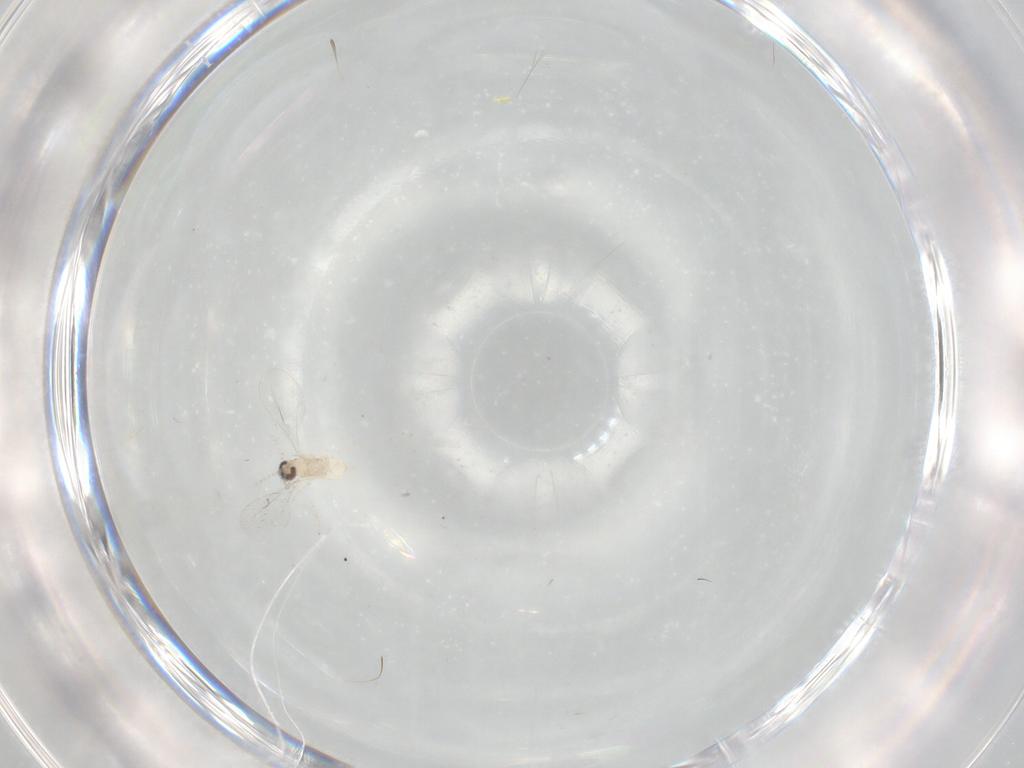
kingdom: Animalia
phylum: Arthropoda
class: Insecta
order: Diptera
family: Cecidomyiidae
